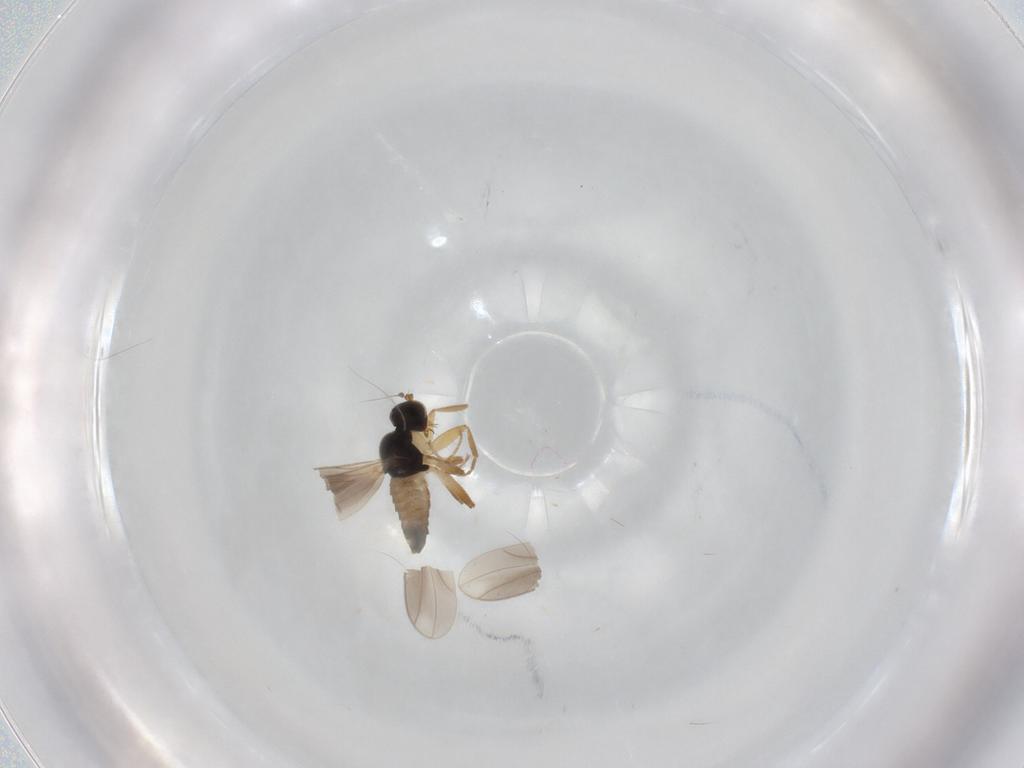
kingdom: Animalia
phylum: Arthropoda
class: Insecta
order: Diptera
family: Hybotidae
